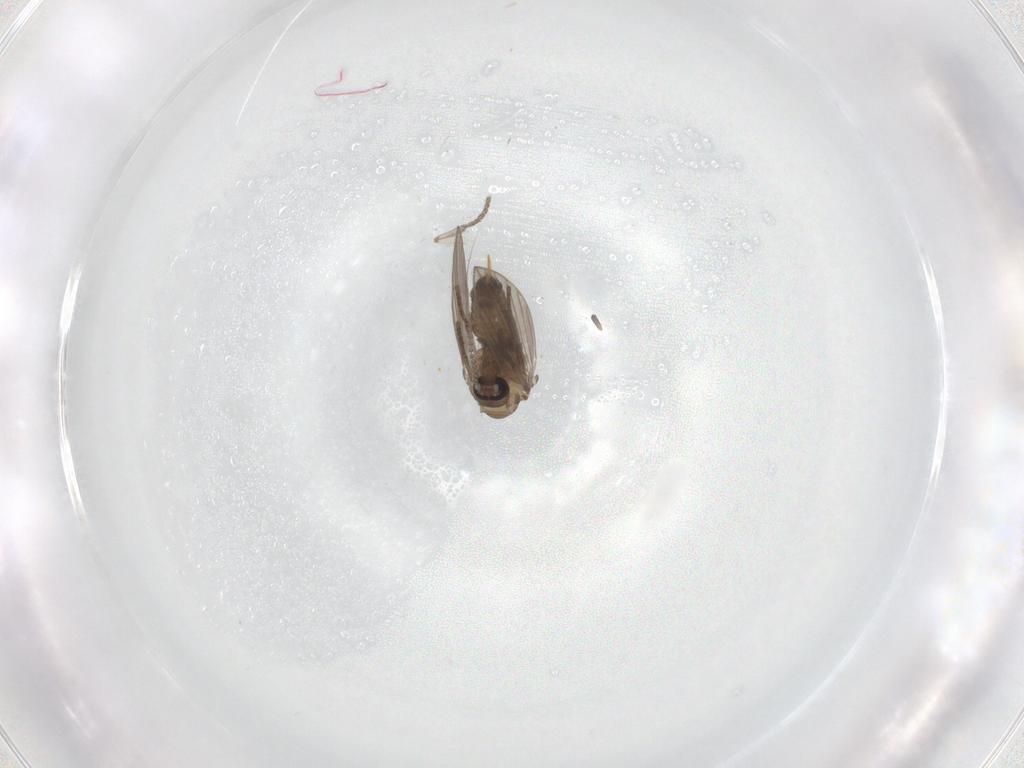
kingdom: Animalia
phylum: Arthropoda
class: Insecta
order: Diptera
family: Psychodidae
